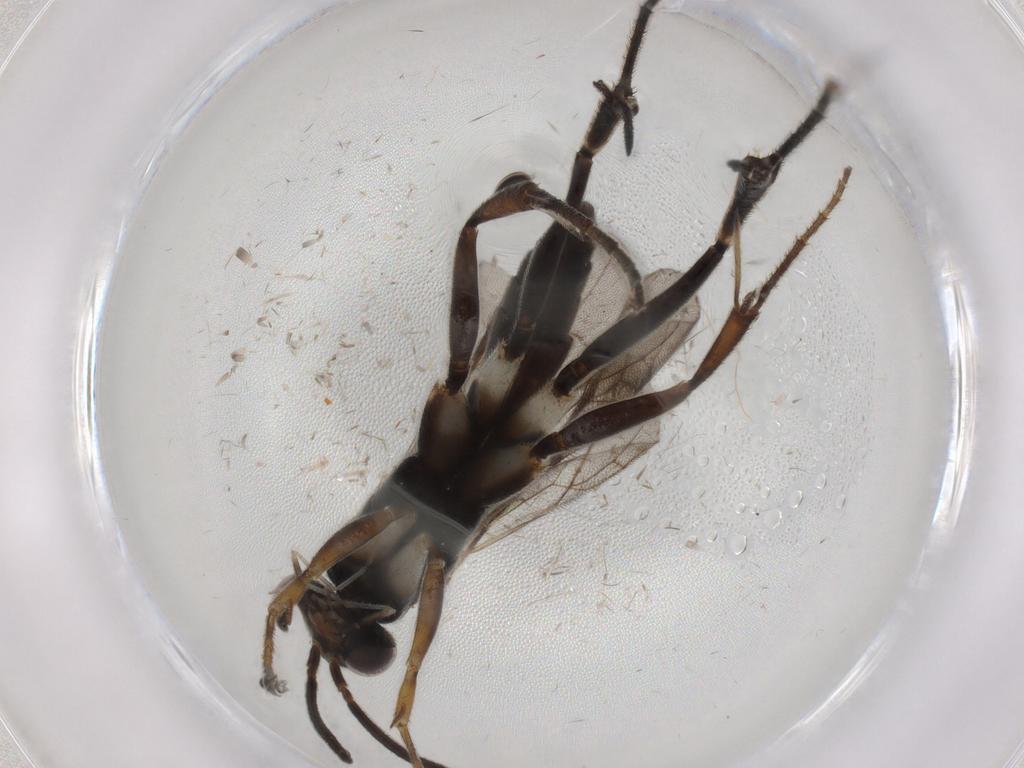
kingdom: Animalia
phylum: Arthropoda
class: Insecta
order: Hymenoptera
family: Pompilidae
